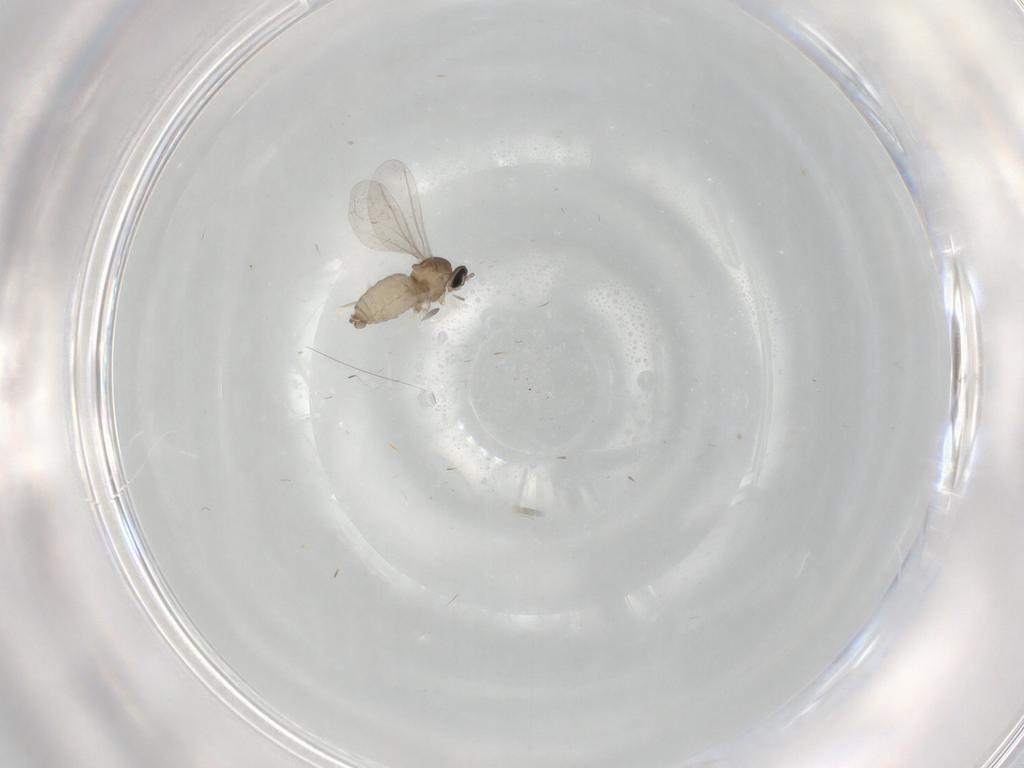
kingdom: Animalia
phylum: Arthropoda
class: Insecta
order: Diptera
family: Cecidomyiidae
